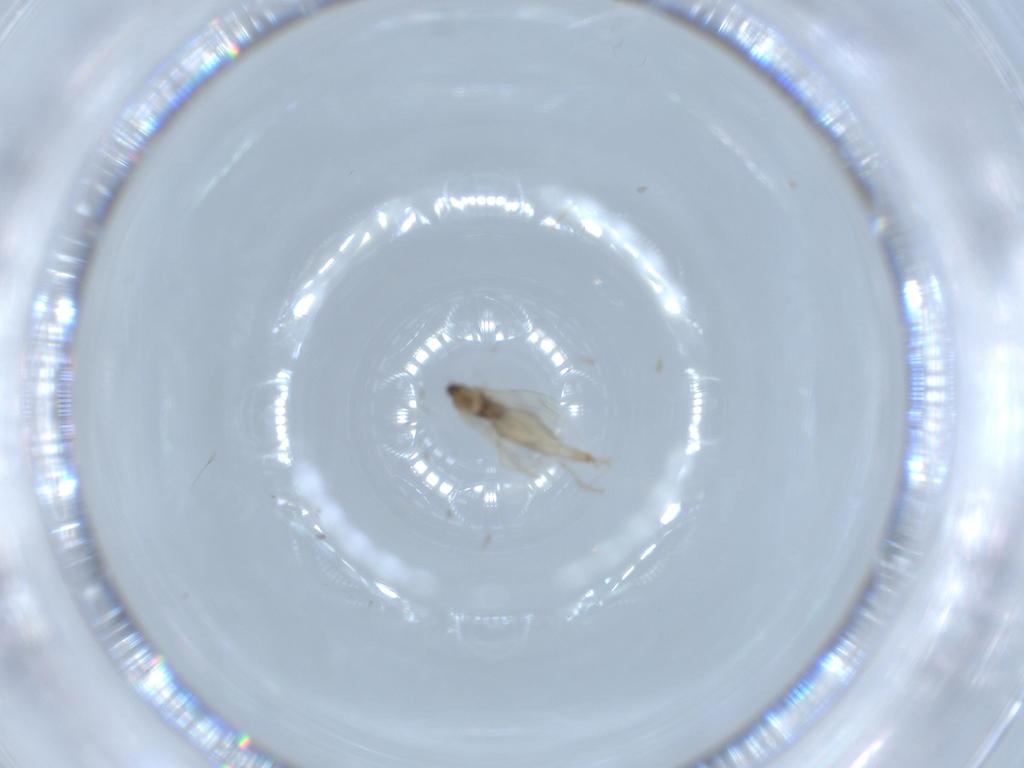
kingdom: Animalia
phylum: Arthropoda
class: Insecta
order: Diptera
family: Cecidomyiidae
